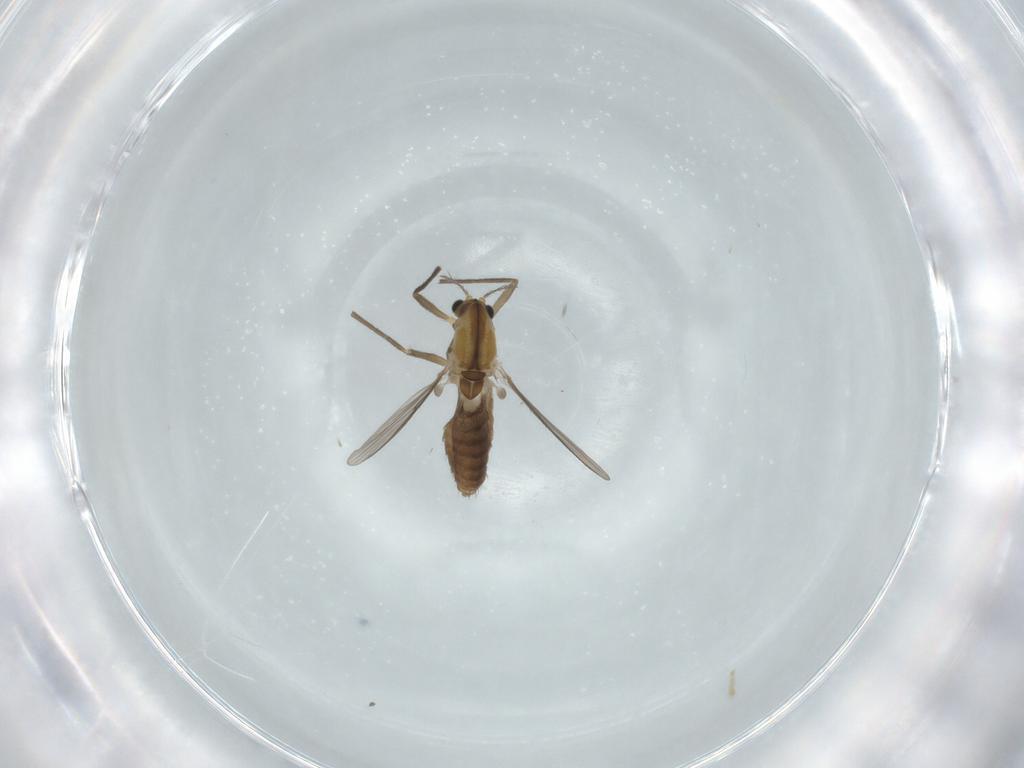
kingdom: Animalia
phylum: Arthropoda
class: Insecta
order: Diptera
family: Chironomidae
